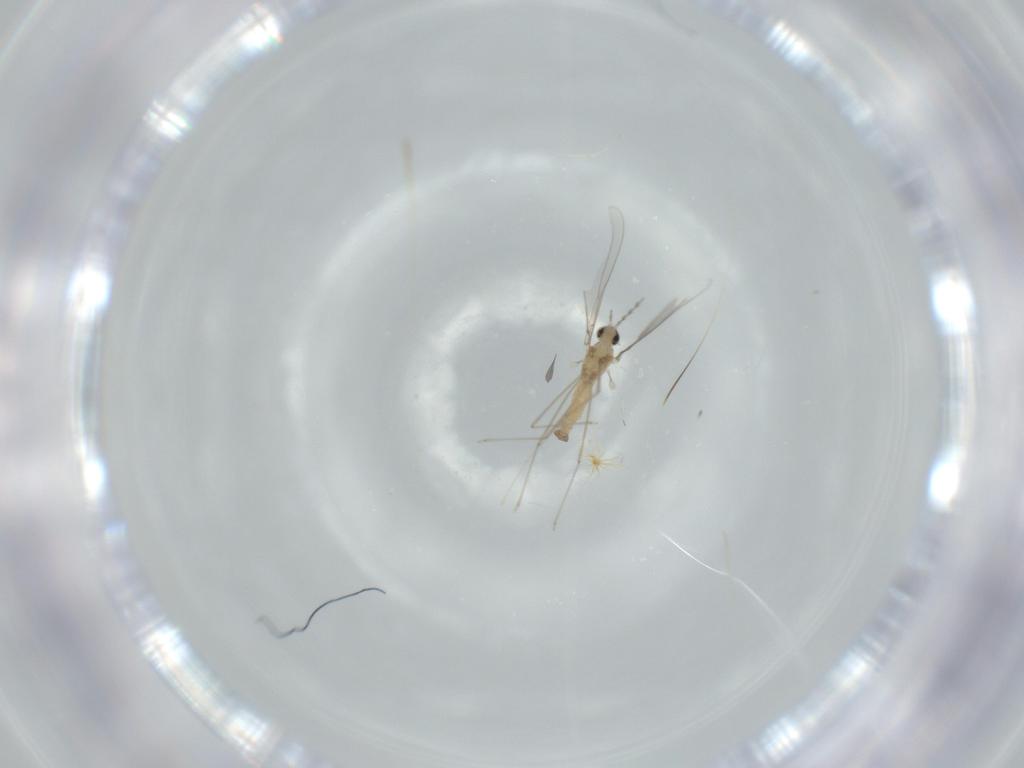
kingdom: Animalia
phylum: Arthropoda
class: Insecta
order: Diptera
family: Cecidomyiidae
